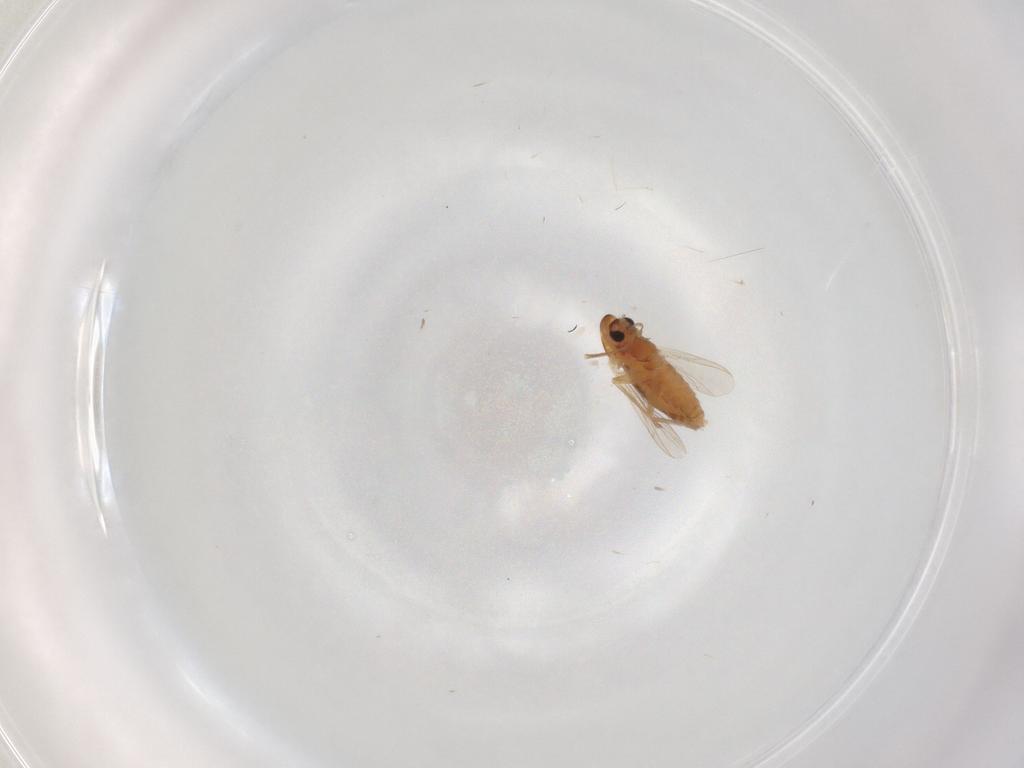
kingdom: Animalia
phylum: Arthropoda
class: Insecta
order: Diptera
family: Chironomidae
